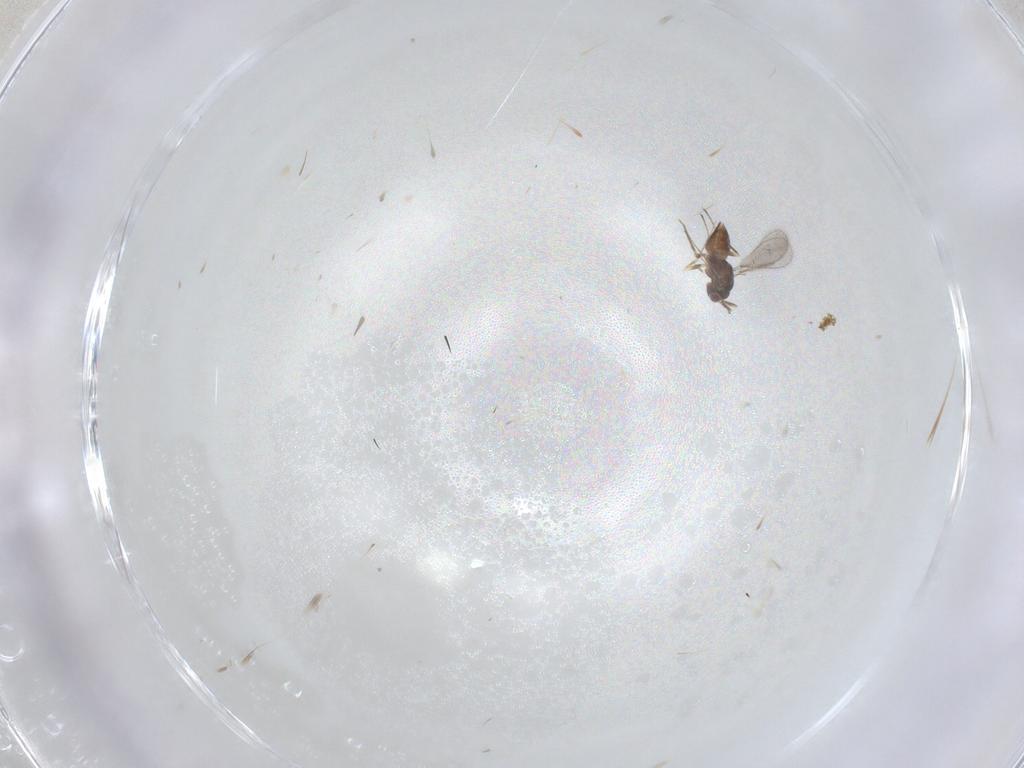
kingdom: Animalia
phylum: Arthropoda
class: Insecta
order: Hymenoptera
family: Mymaridae
